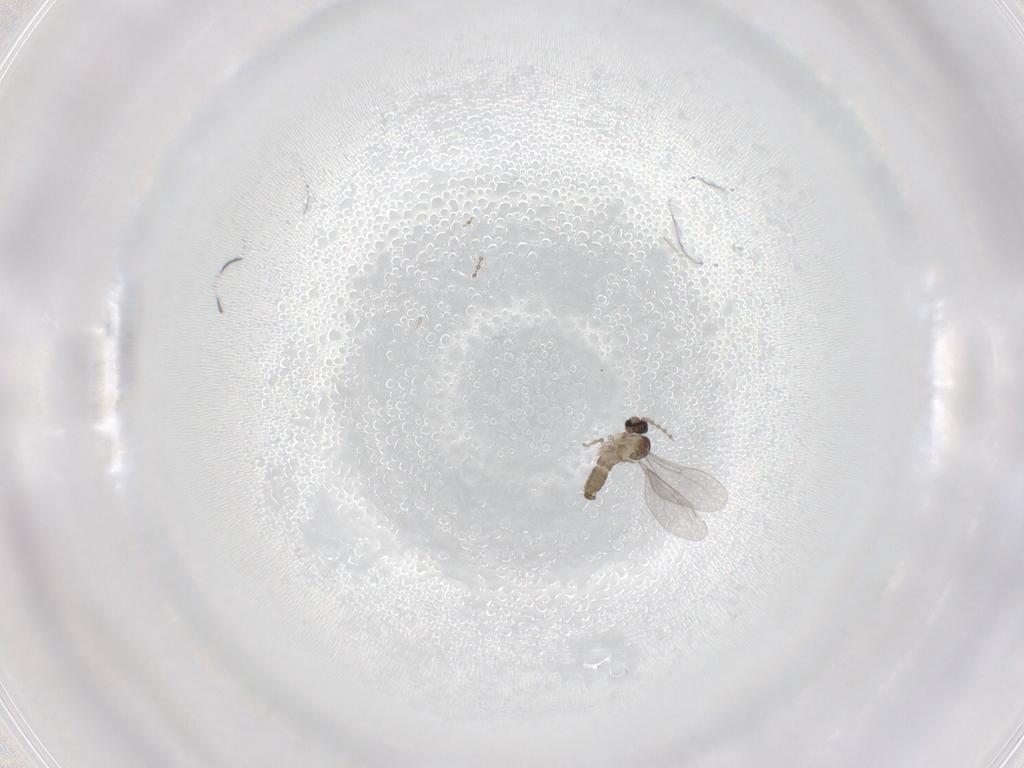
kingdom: Animalia
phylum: Arthropoda
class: Insecta
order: Diptera
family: Cecidomyiidae
